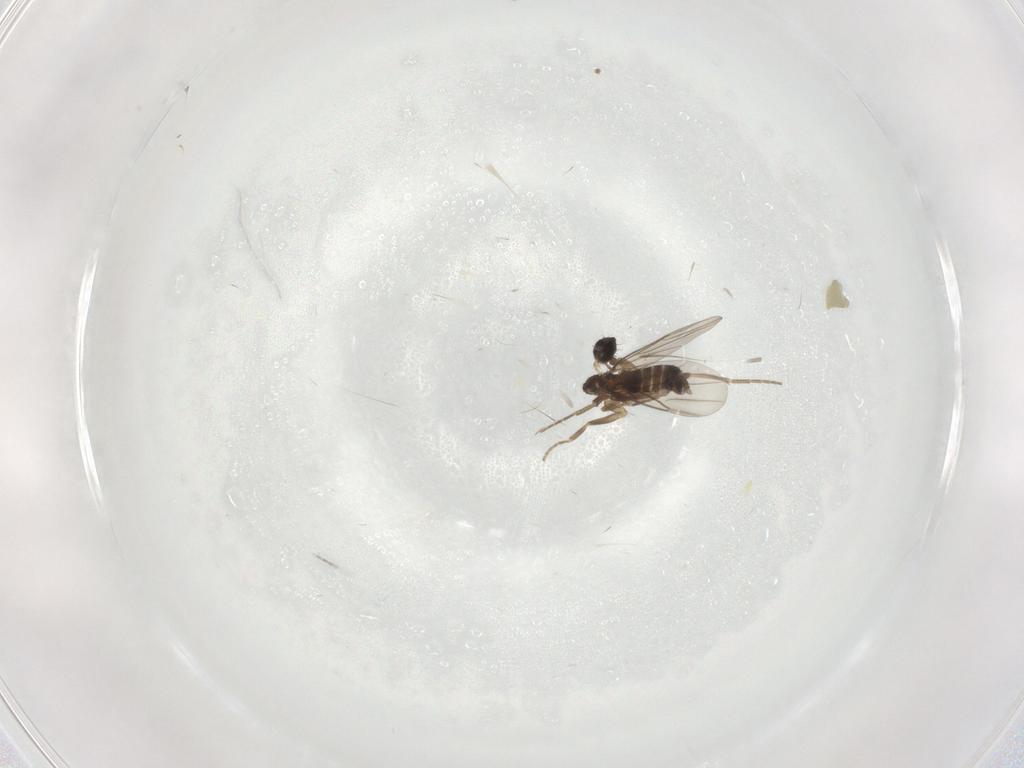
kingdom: Animalia
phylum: Arthropoda
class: Insecta
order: Diptera
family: Phoridae
